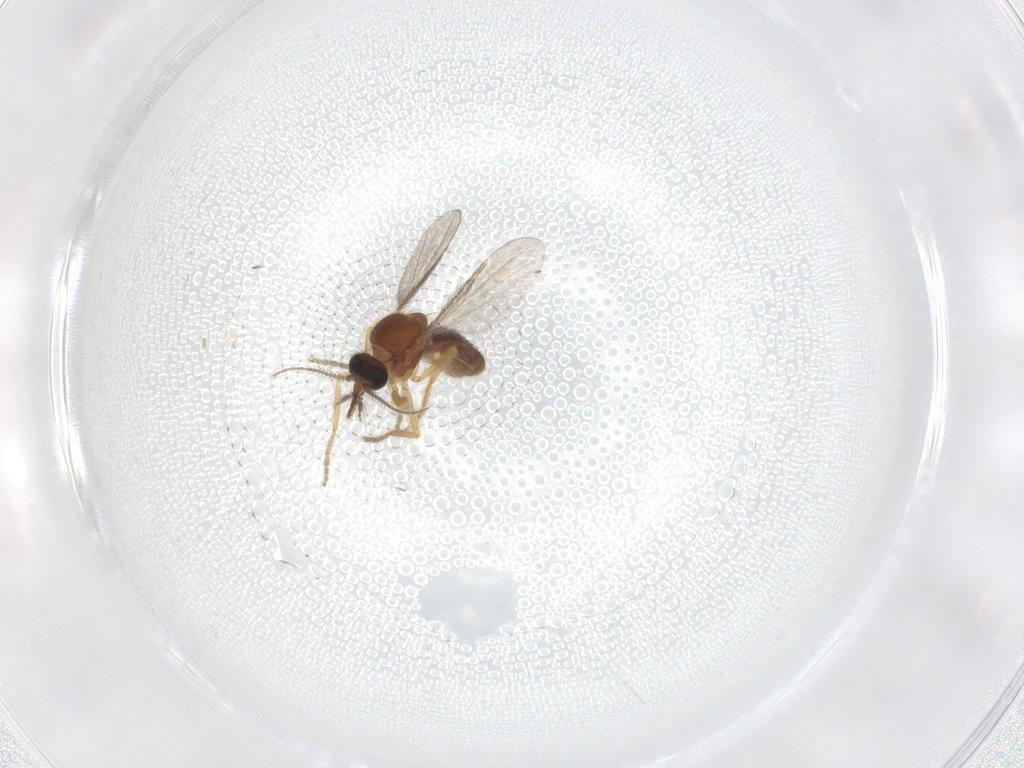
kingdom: Animalia
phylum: Arthropoda
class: Insecta
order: Diptera
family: Ceratopogonidae
